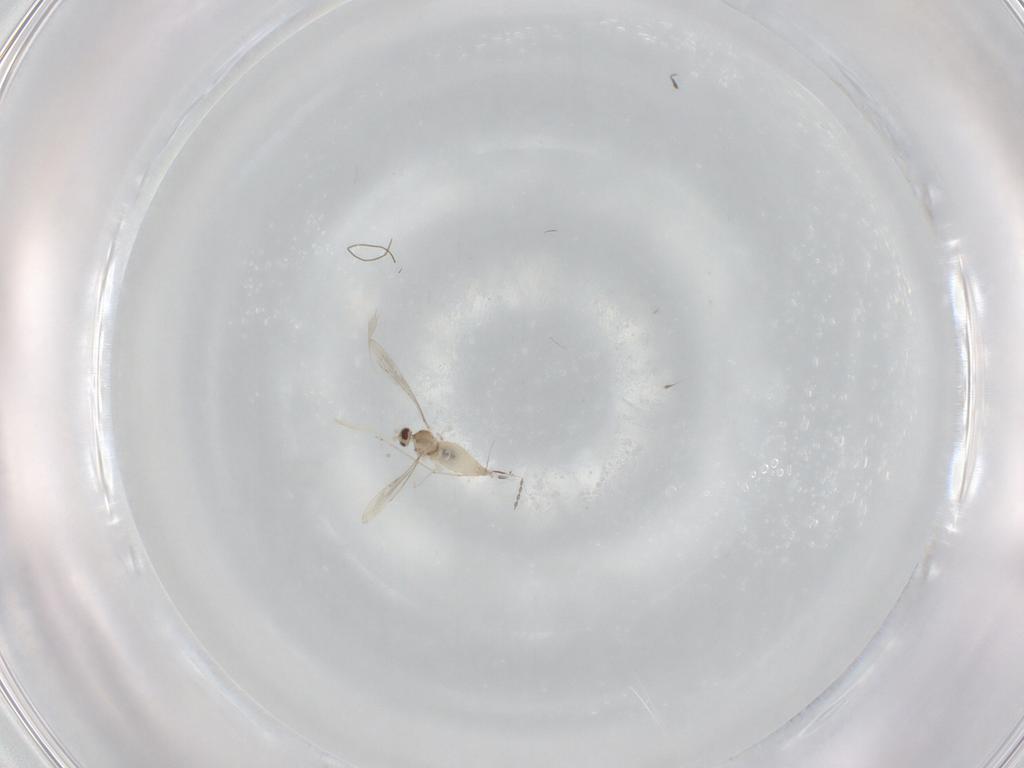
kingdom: Animalia
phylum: Arthropoda
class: Insecta
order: Diptera
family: Cecidomyiidae
